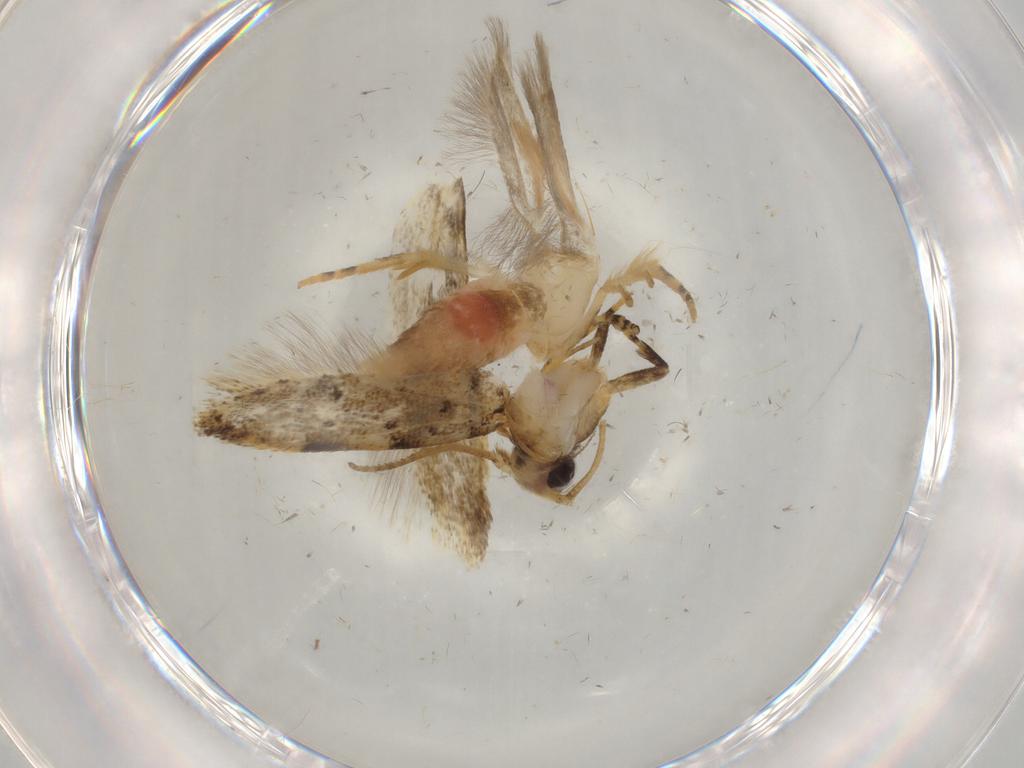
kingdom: Animalia
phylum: Arthropoda
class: Insecta
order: Lepidoptera
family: Gelechiidae
